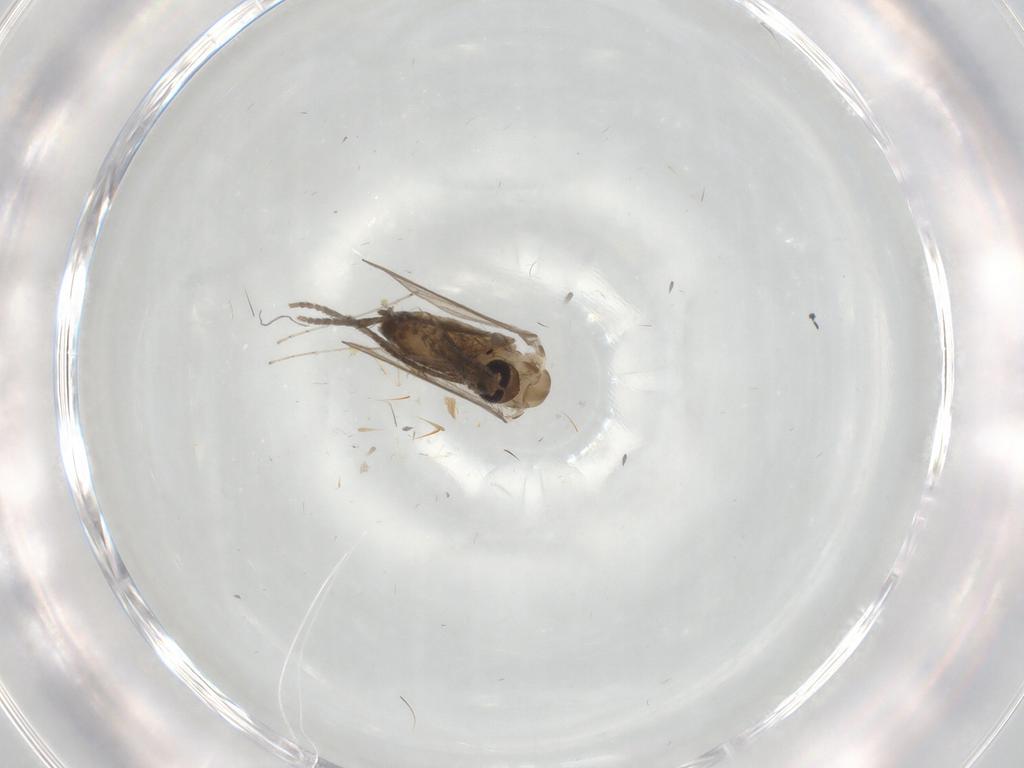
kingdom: Animalia
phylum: Arthropoda
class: Insecta
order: Diptera
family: Psychodidae
